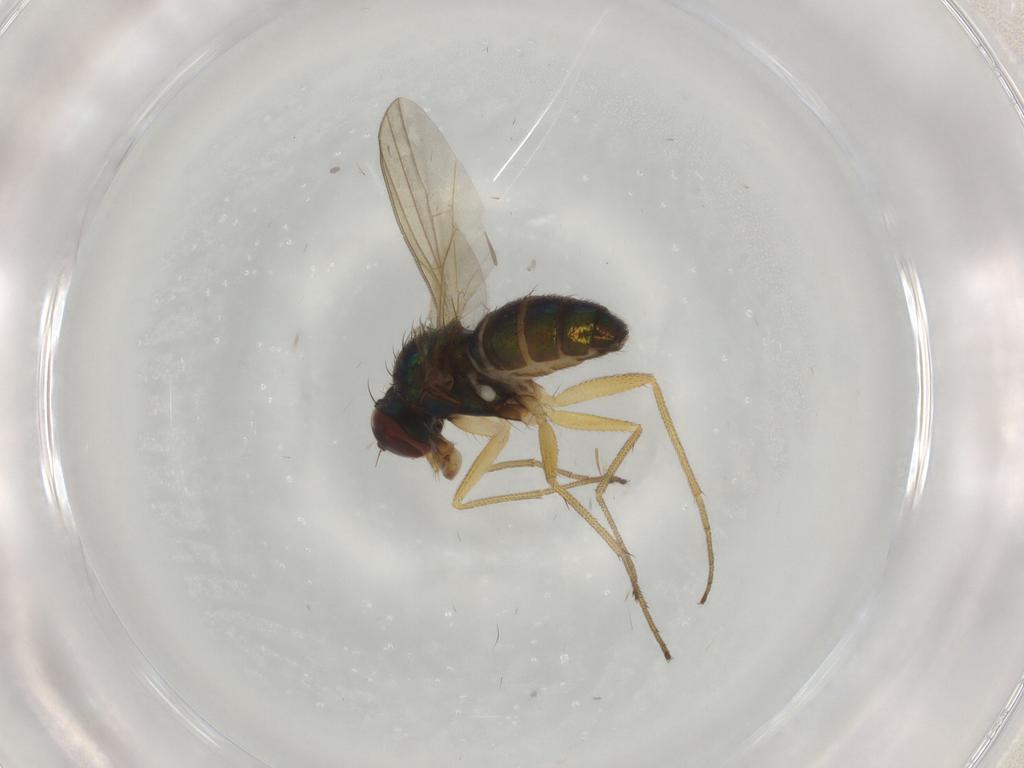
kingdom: Animalia
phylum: Arthropoda
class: Insecta
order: Diptera
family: Dolichopodidae
